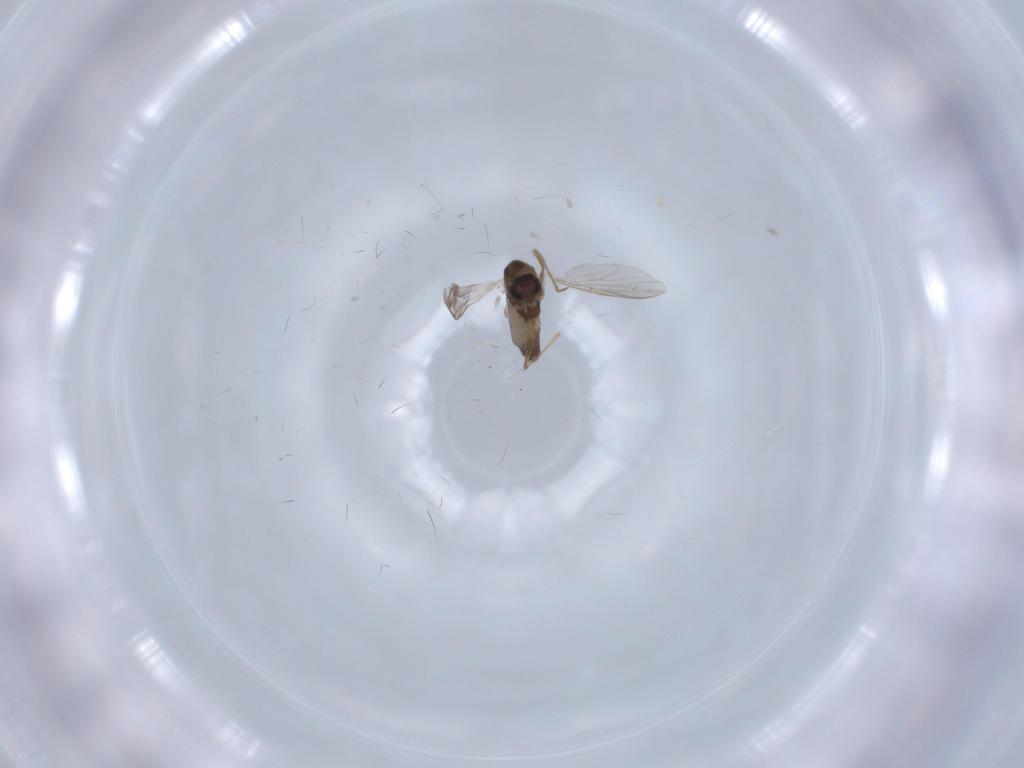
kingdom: Animalia
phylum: Arthropoda
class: Insecta
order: Diptera
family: Chironomidae
